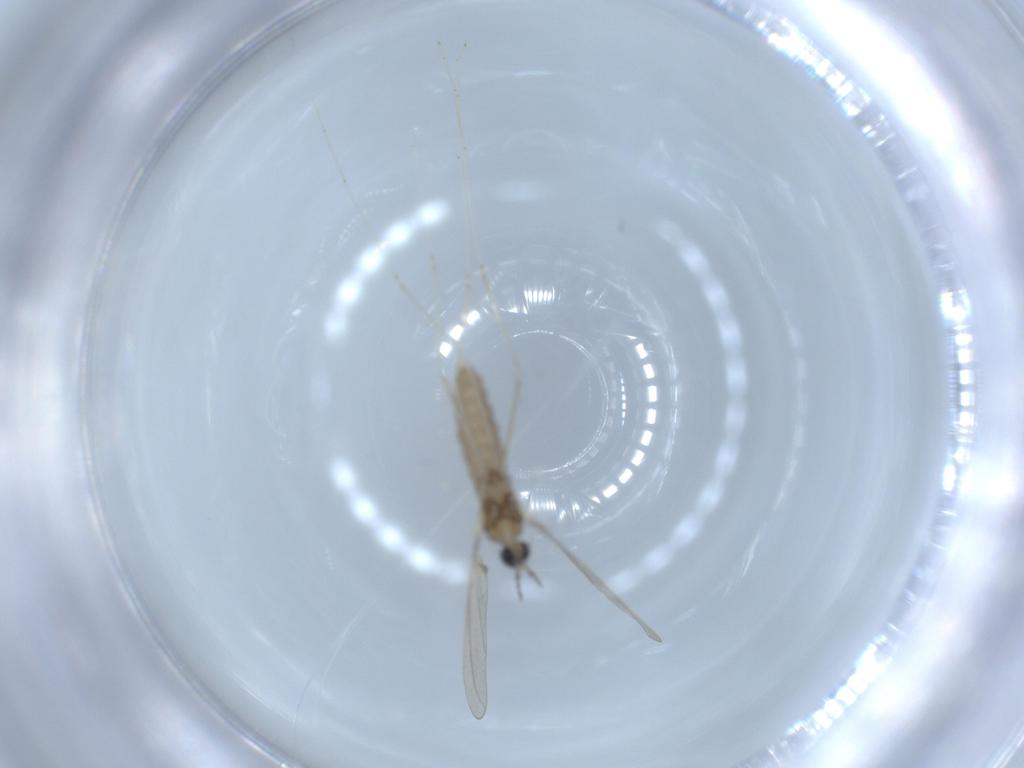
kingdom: Animalia
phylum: Arthropoda
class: Insecta
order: Diptera
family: Cecidomyiidae
